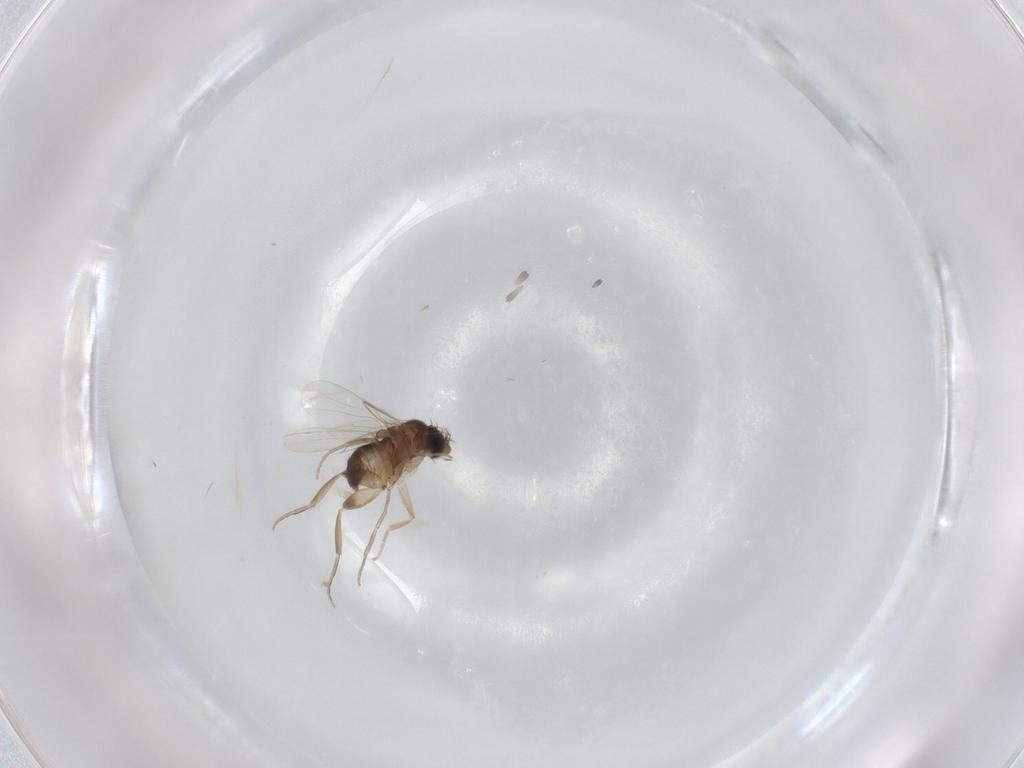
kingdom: Animalia
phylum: Arthropoda
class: Insecta
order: Diptera
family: Phoridae
